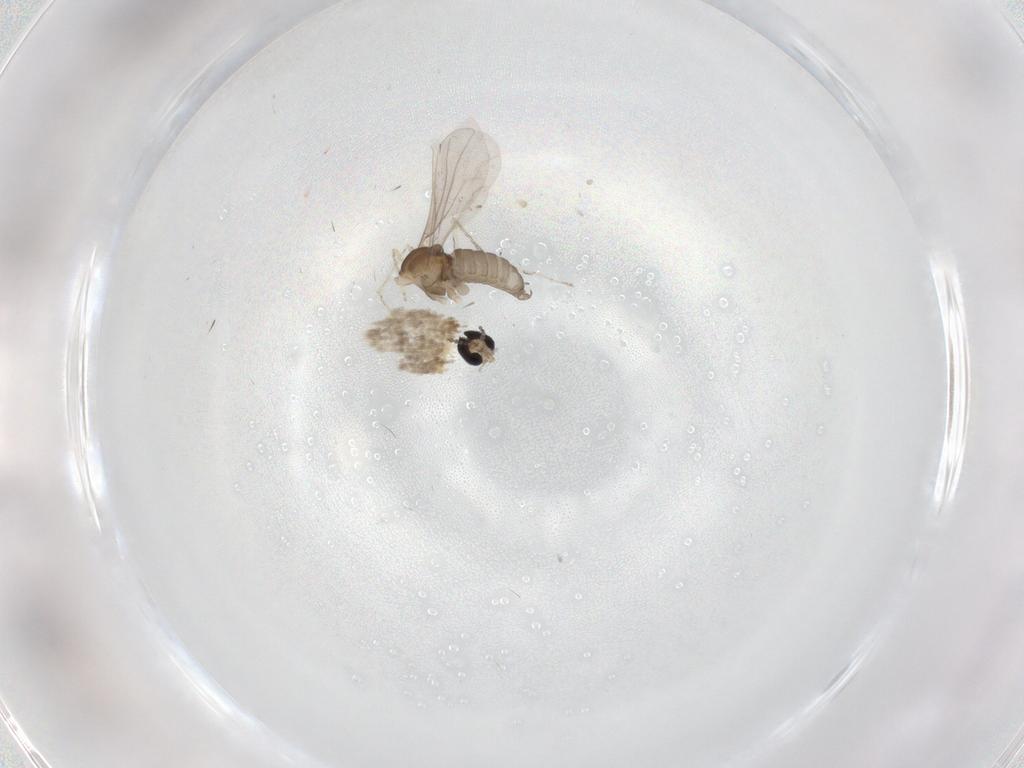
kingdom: Animalia
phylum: Arthropoda
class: Insecta
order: Diptera
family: Cecidomyiidae
